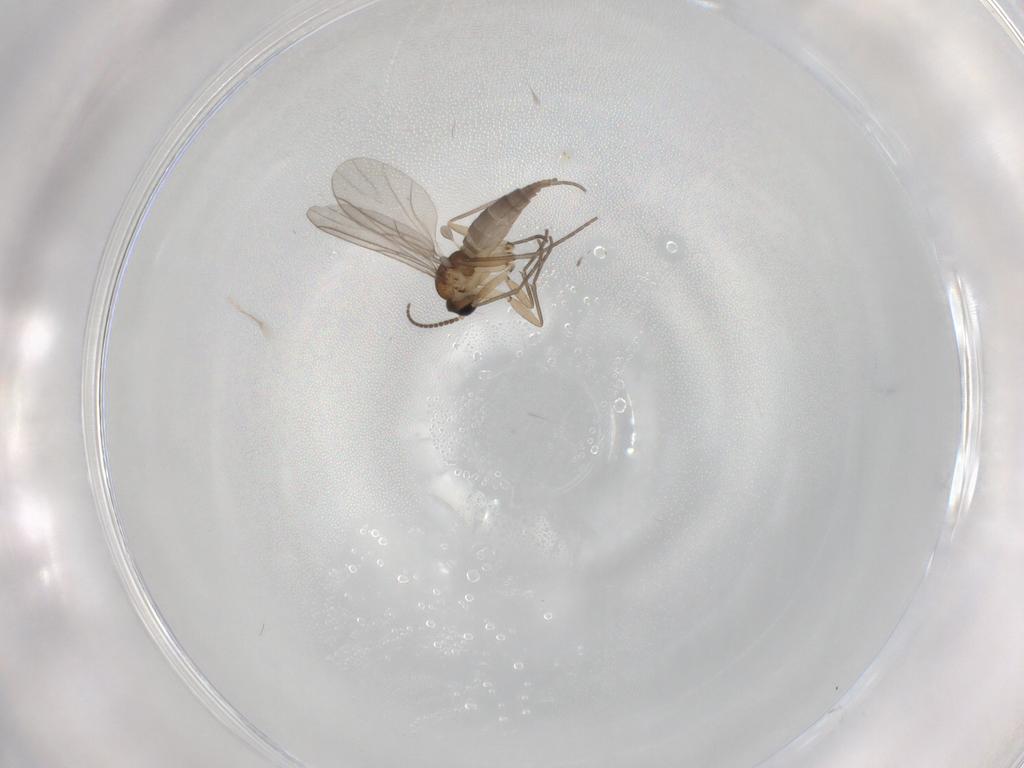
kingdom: Animalia
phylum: Arthropoda
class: Insecta
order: Diptera
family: Sciaridae
